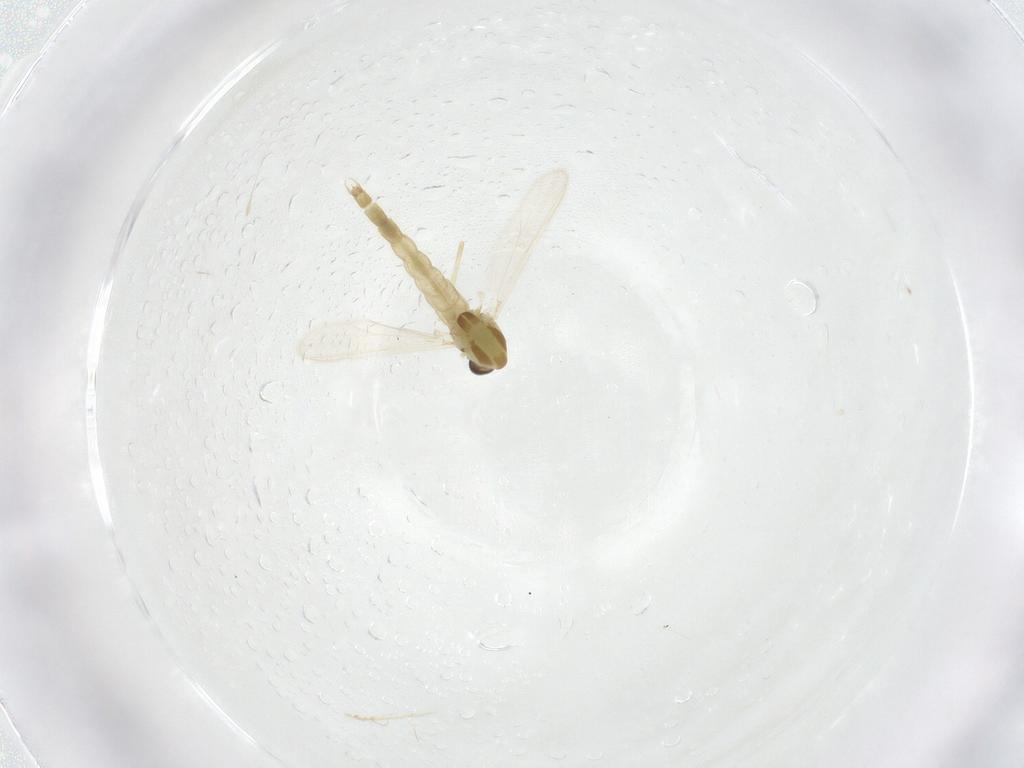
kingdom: Animalia
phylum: Arthropoda
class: Insecta
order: Diptera
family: Chironomidae
